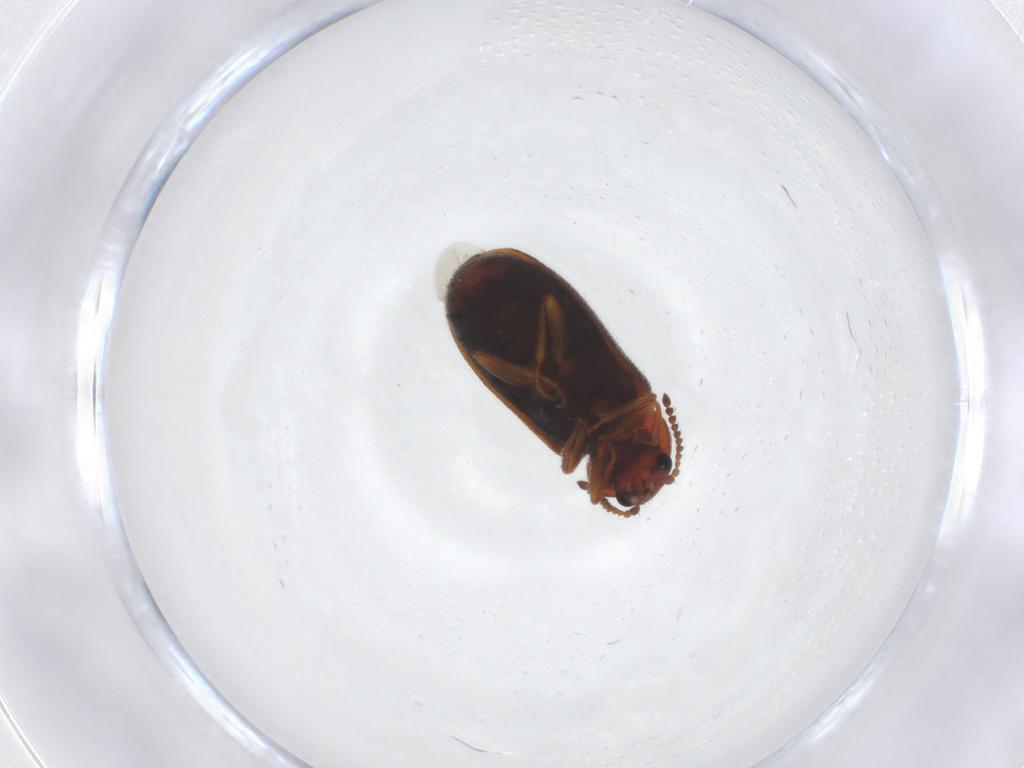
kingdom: Animalia
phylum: Arthropoda
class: Insecta
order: Coleoptera
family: Melyridae
